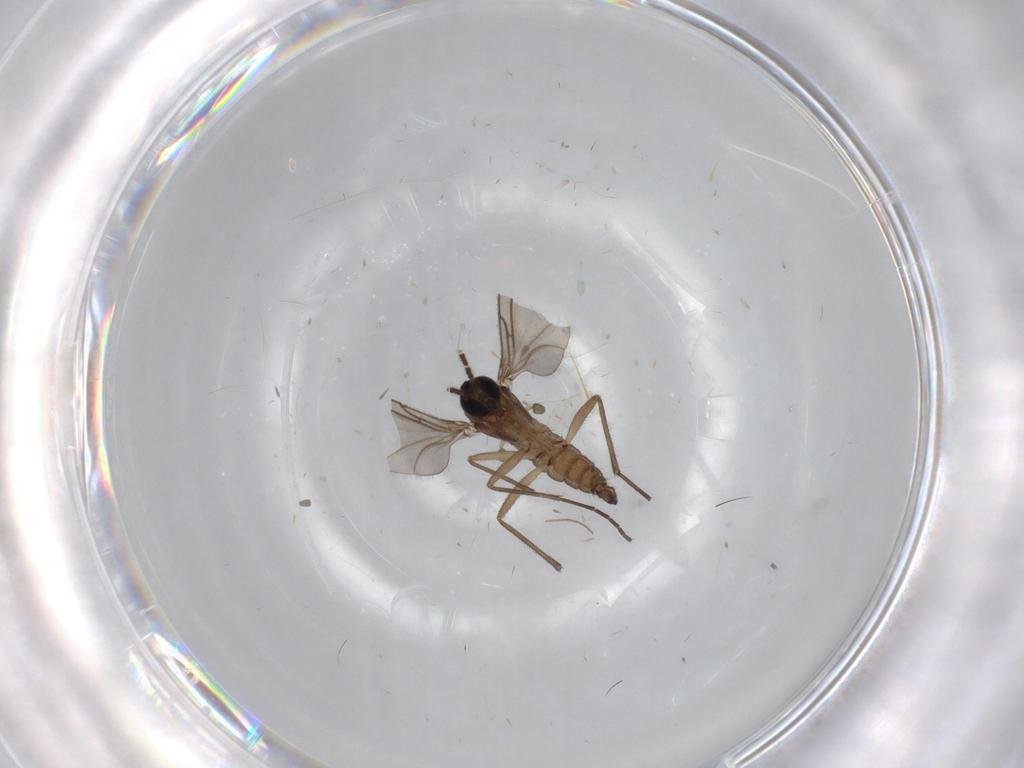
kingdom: Animalia
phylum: Arthropoda
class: Insecta
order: Diptera
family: Sciaridae
